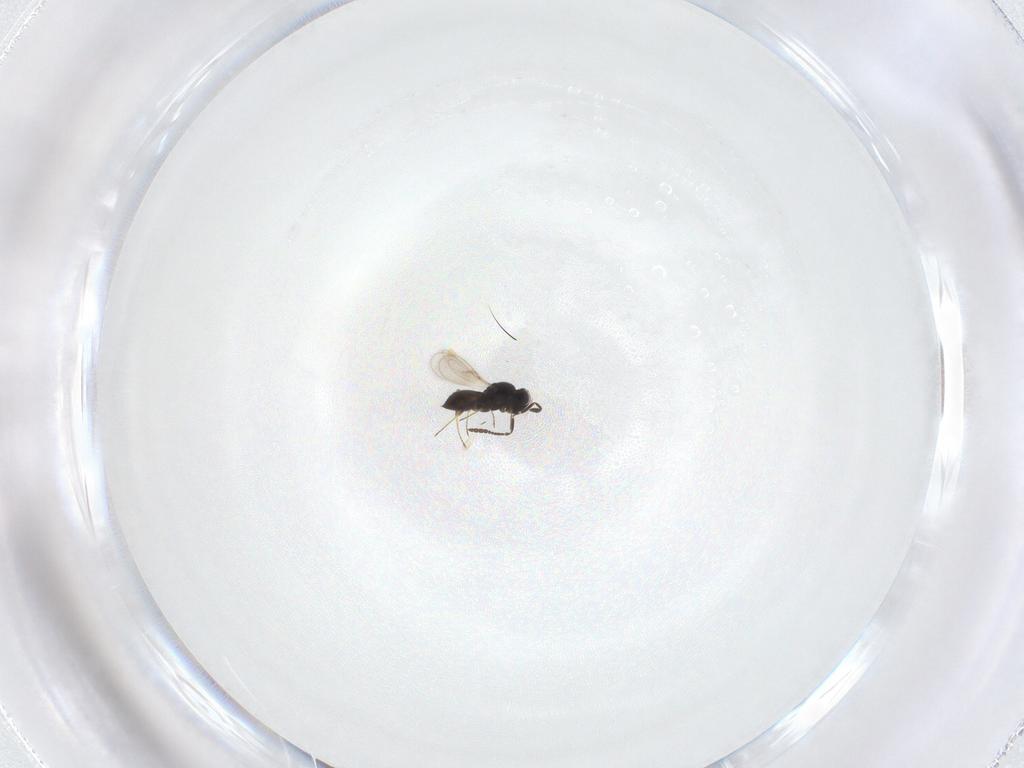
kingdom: Animalia
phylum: Arthropoda
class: Insecta
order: Hymenoptera
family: Scelionidae
